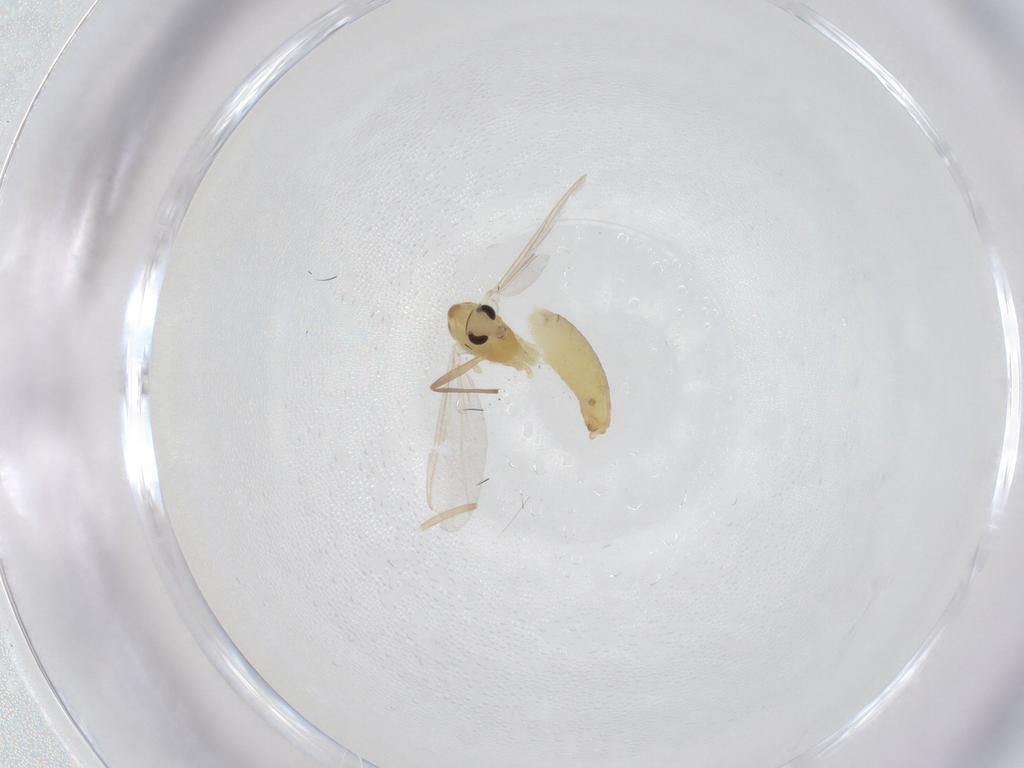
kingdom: Animalia
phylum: Arthropoda
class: Insecta
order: Diptera
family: Chironomidae
